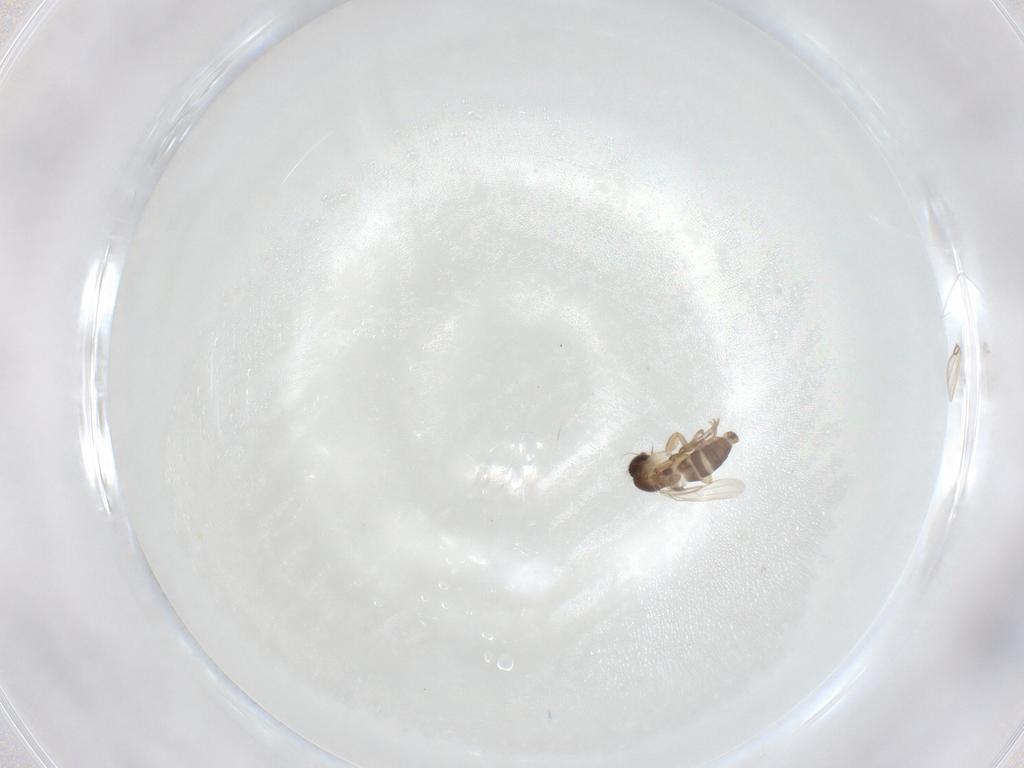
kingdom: Animalia
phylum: Arthropoda
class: Insecta
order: Diptera
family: Phoridae
